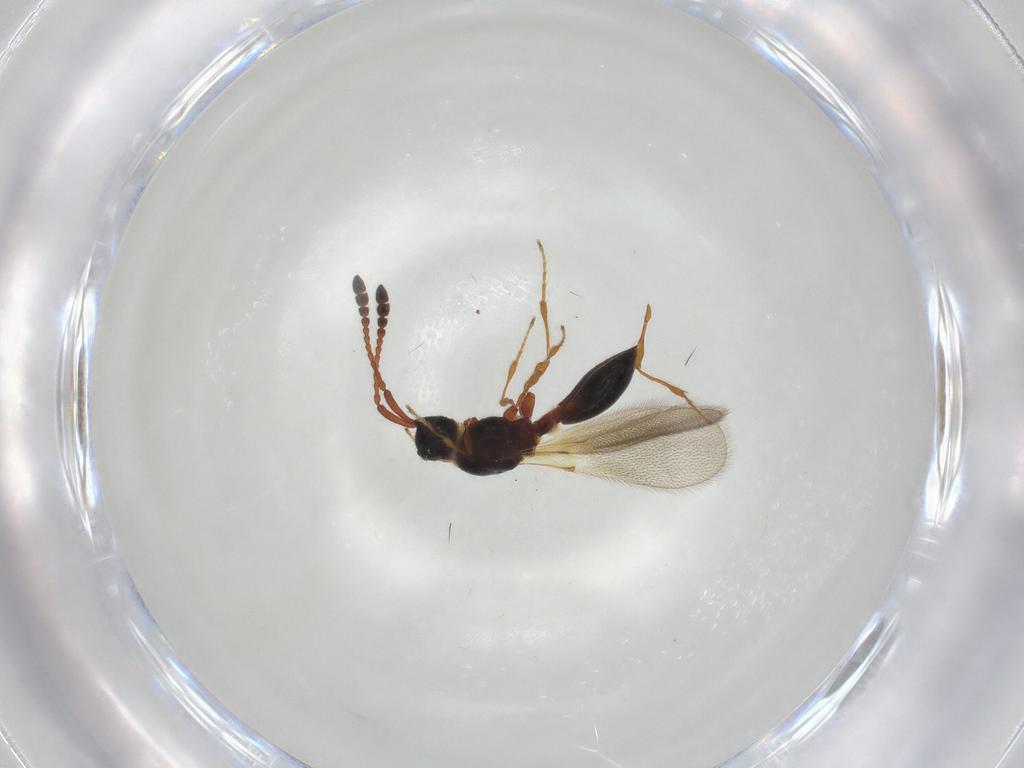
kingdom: Animalia
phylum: Arthropoda
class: Insecta
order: Hymenoptera
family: Diapriidae
